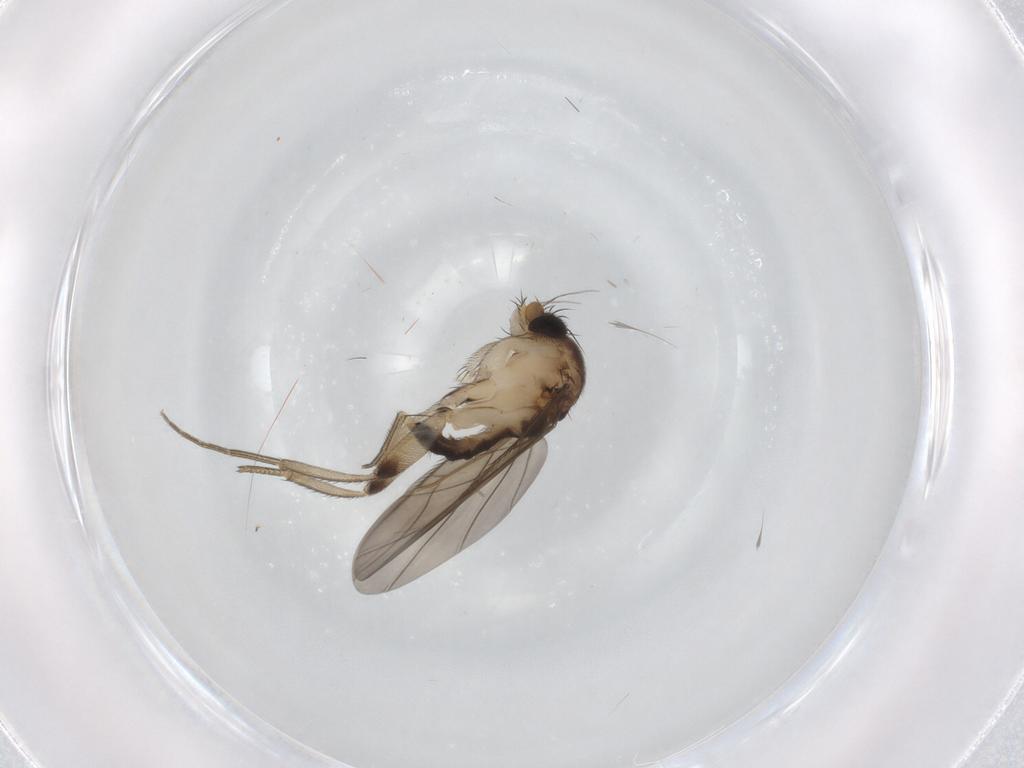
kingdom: Animalia
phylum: Arthropoda
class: Insecta
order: Diptera
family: Phoridae
